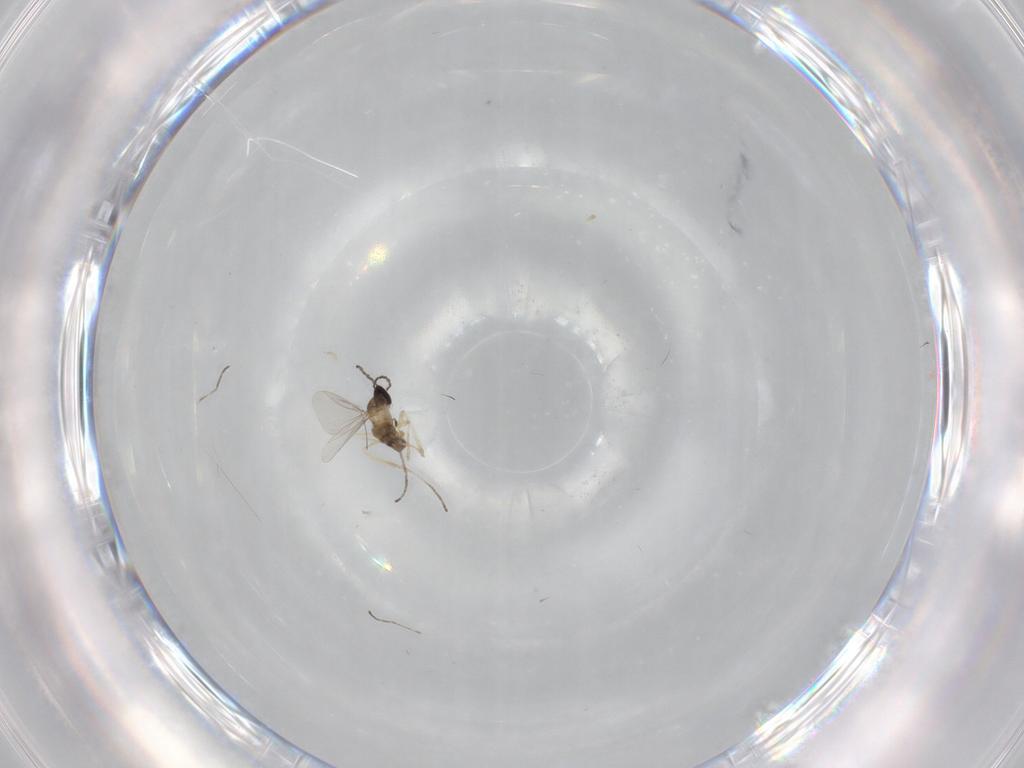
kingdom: Animalia
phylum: Arthropoda
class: Insecta
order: Diptera
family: Cecidomyiidae
